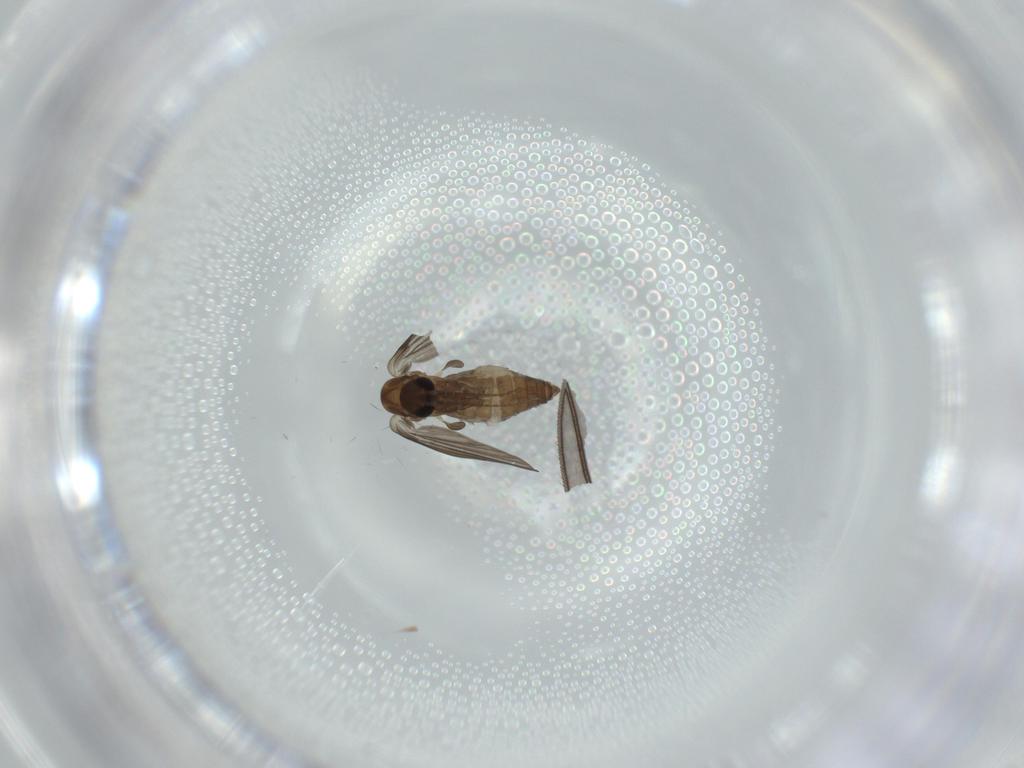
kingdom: Animalia
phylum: Arthropoda
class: Insecta
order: Diptera
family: Sciaridae
